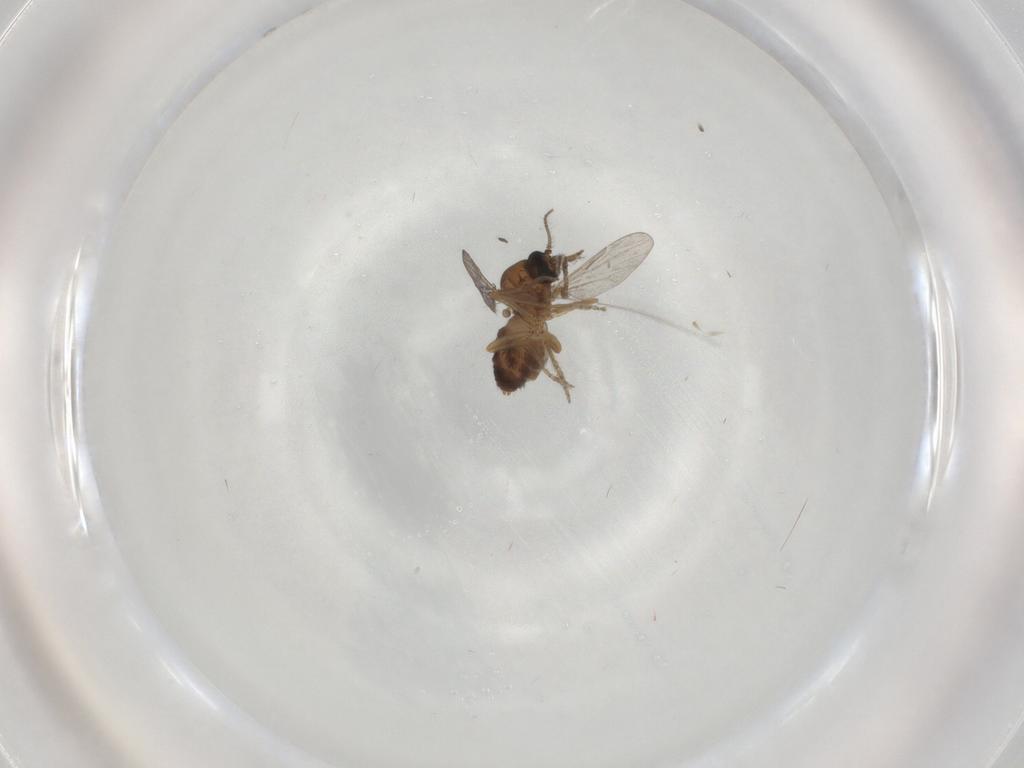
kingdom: Animalia
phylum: Arthropoda
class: Insecta
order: Diptera
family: Ceratopogonidae
